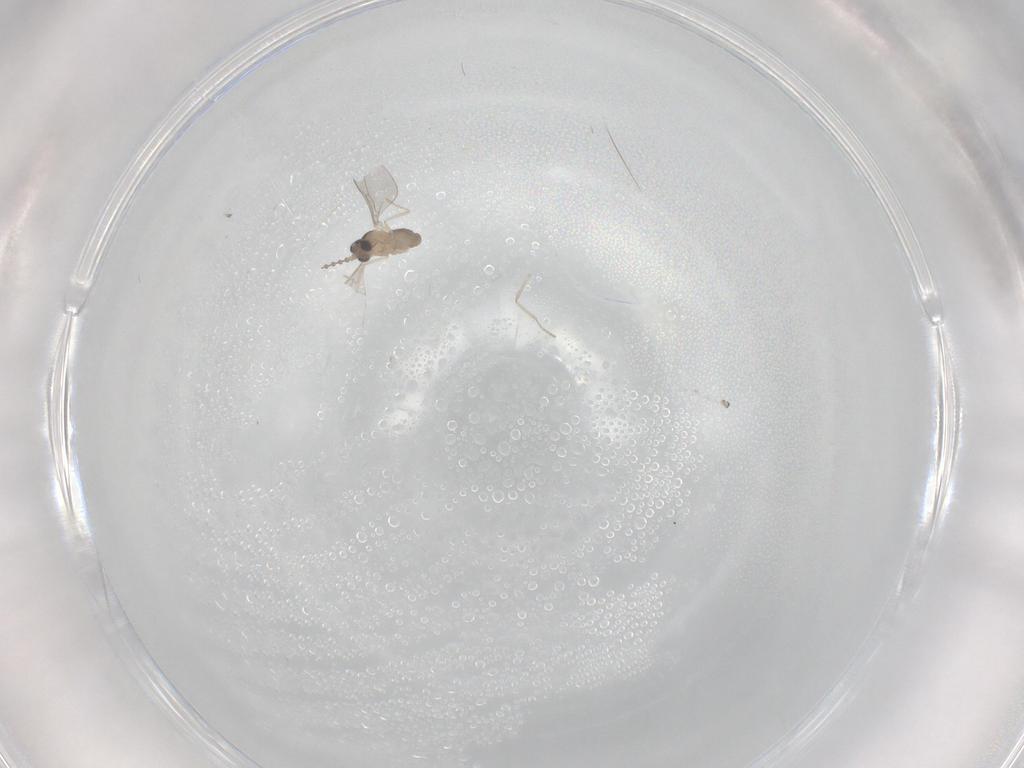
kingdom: Animalia
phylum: Arthropoda
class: Insecta
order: Diptera
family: Cecidomyiidae
